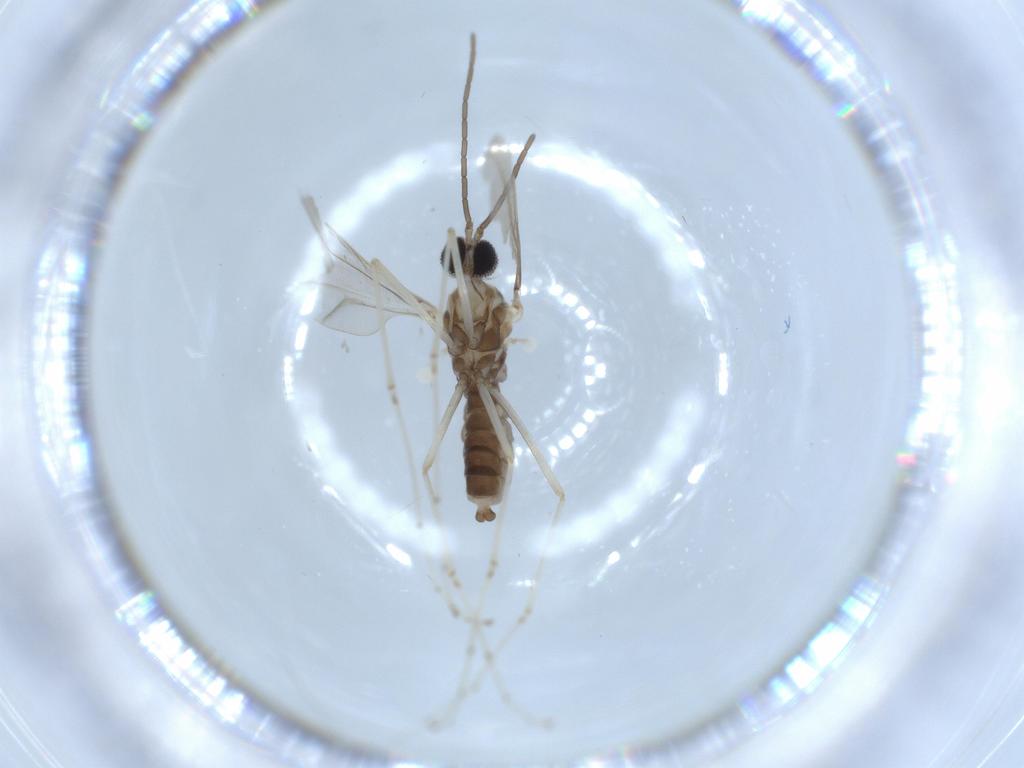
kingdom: Animalia
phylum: Arthropoda
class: Insecta
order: Diptera
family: Cecidomyiidae
